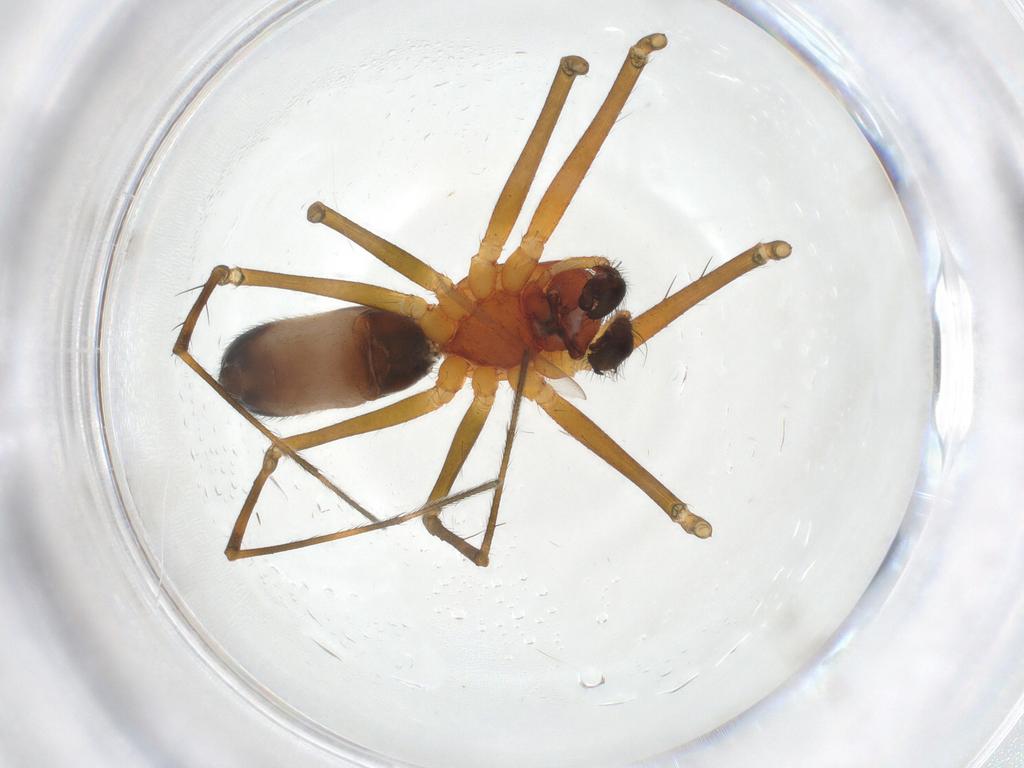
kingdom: Animalia
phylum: Arthropoda
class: Arachnida
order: Araneae
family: Linyphiidae
